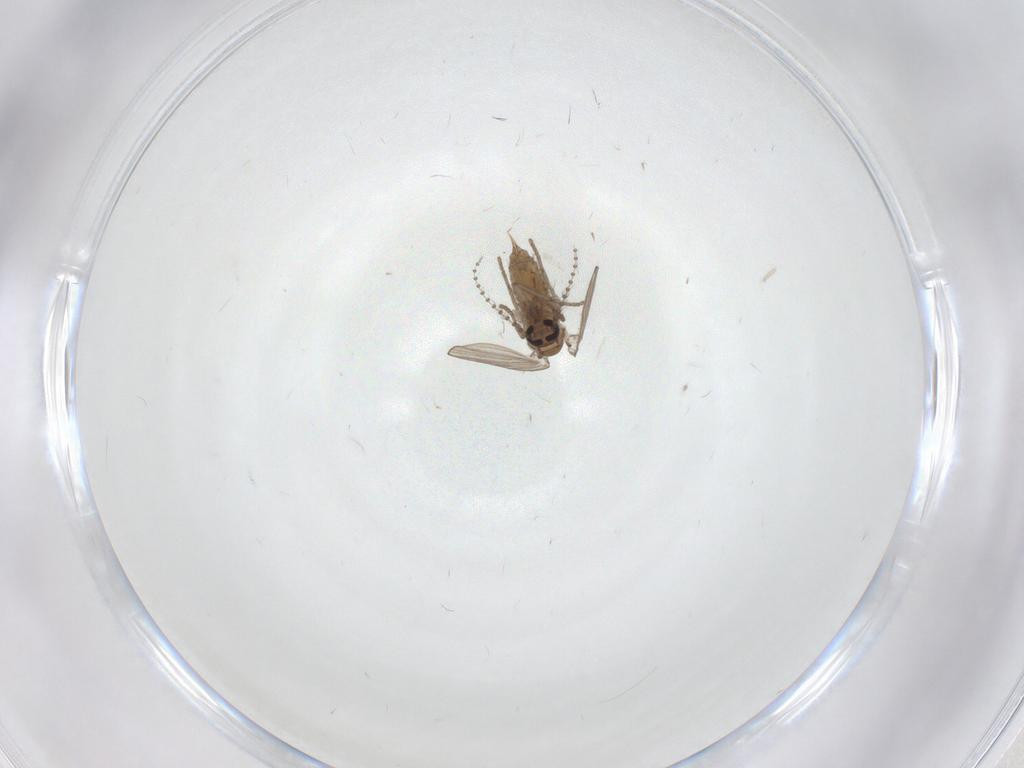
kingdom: Animalia
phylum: Arthropoda
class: Insecta
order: Diptera
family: Psychodidae
